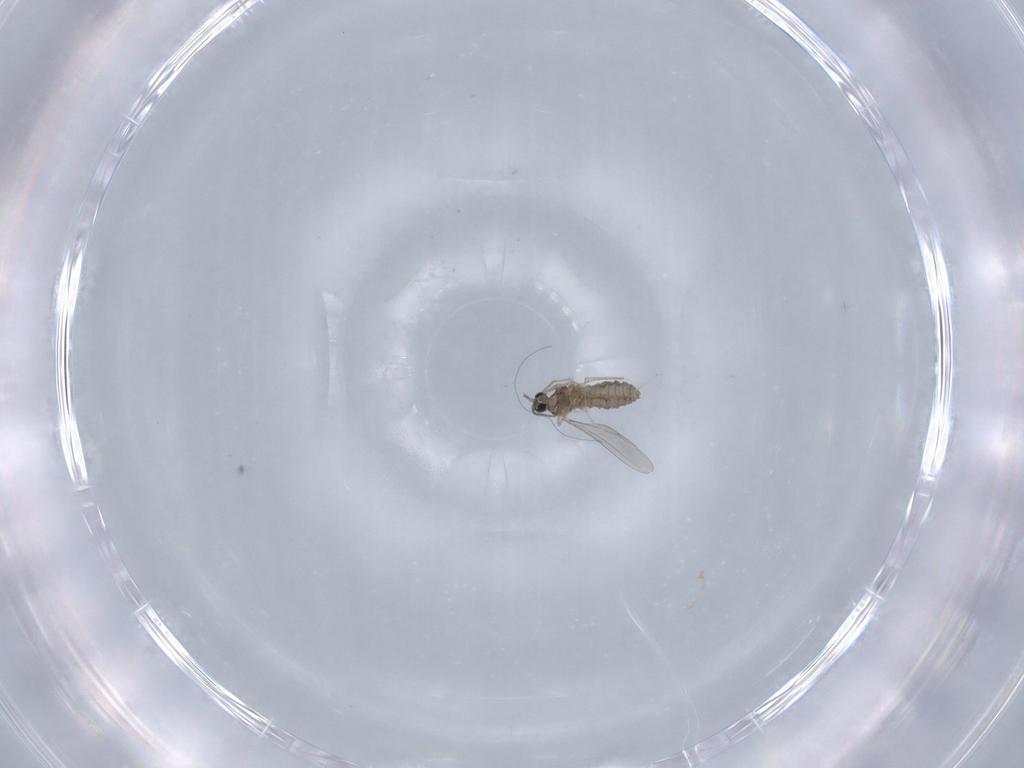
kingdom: Animalia
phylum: Arthropoda
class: Insecta
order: Diptera
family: Cecidomyiidae
